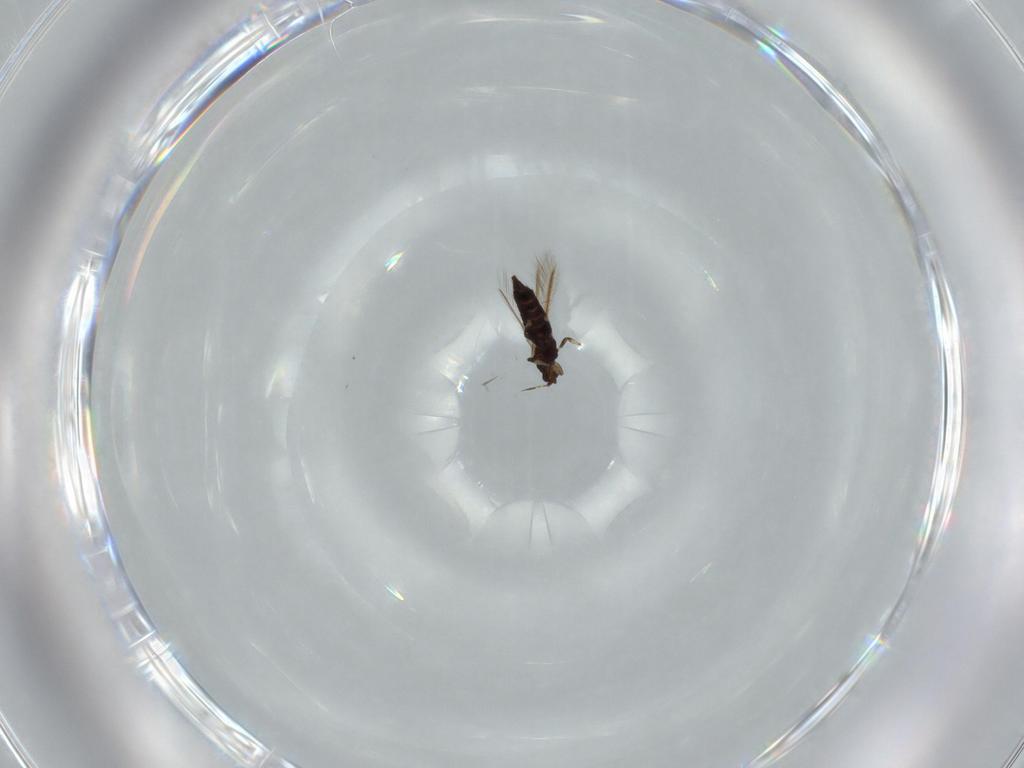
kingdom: Animalia
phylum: Arthropoda
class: Insecta
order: Thysanoptera
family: Thripidae
